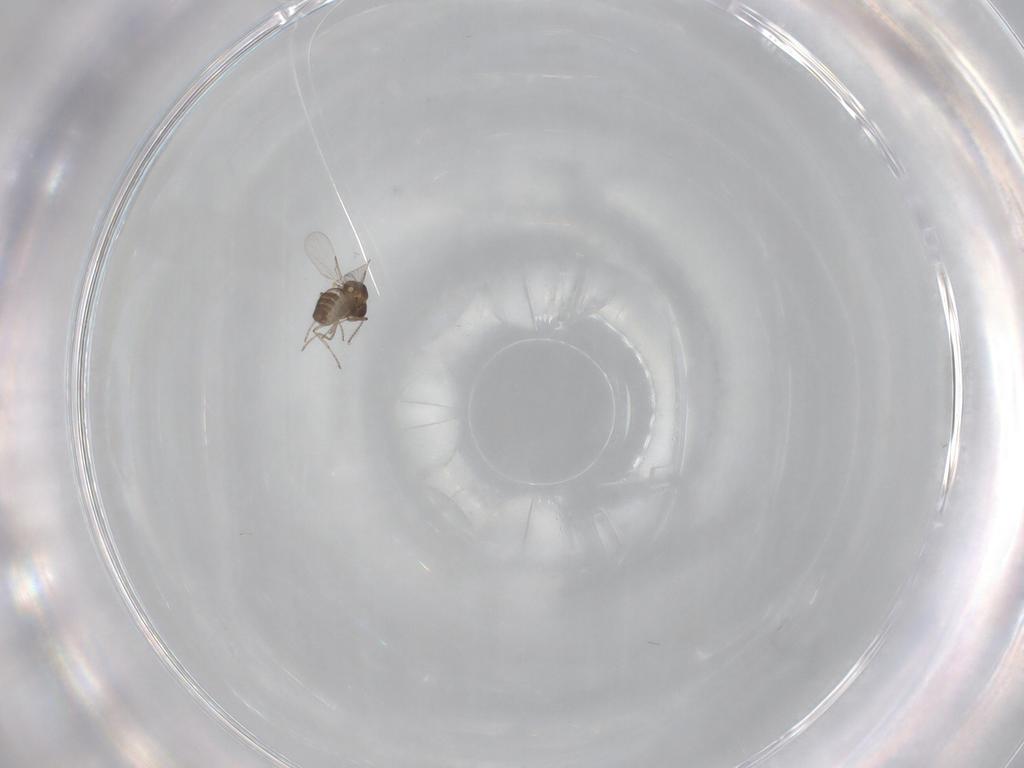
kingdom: Animalia
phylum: Arthropoda
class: Insecta
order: Diptera
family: Ceratopogonidae
